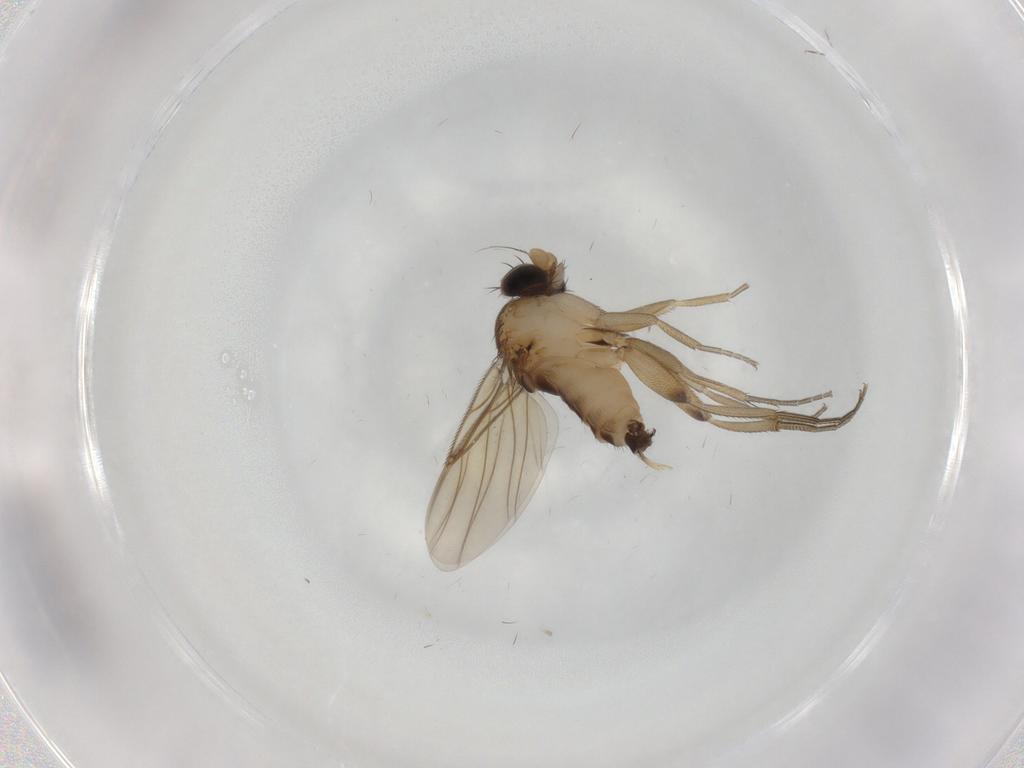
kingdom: Animalia
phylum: Arthropoda
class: Insecta
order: Diptera
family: Phoridae
